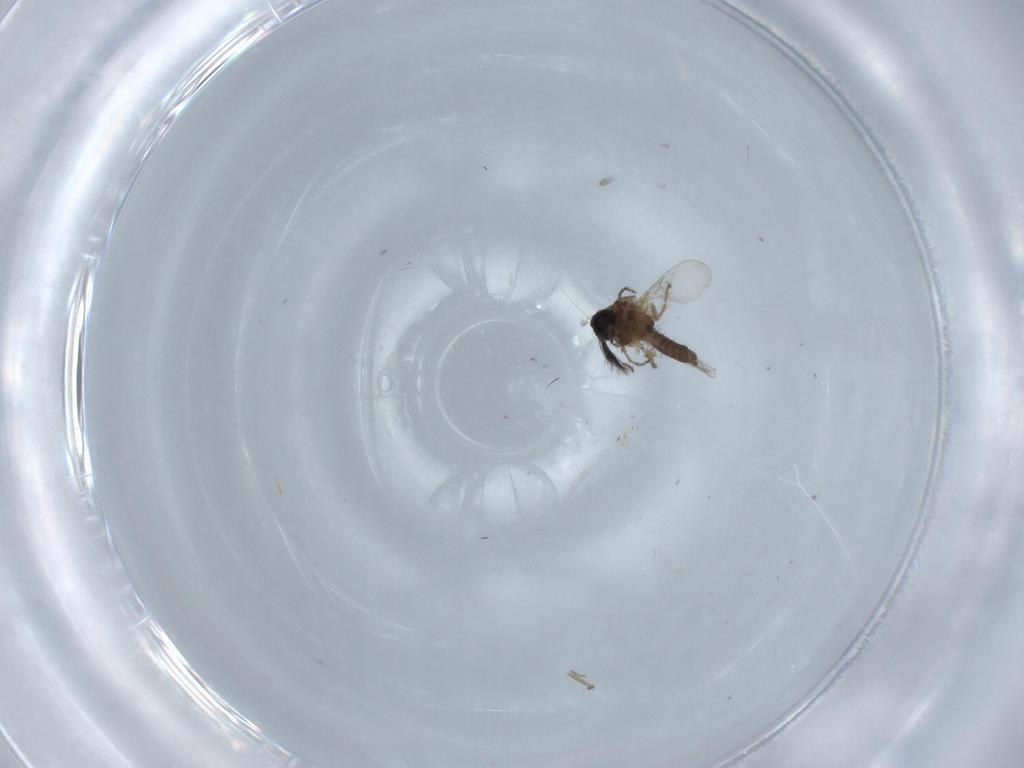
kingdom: Animalia
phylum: Arthropoda
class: Insecta
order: Diptera
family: Ceratopogonidae
